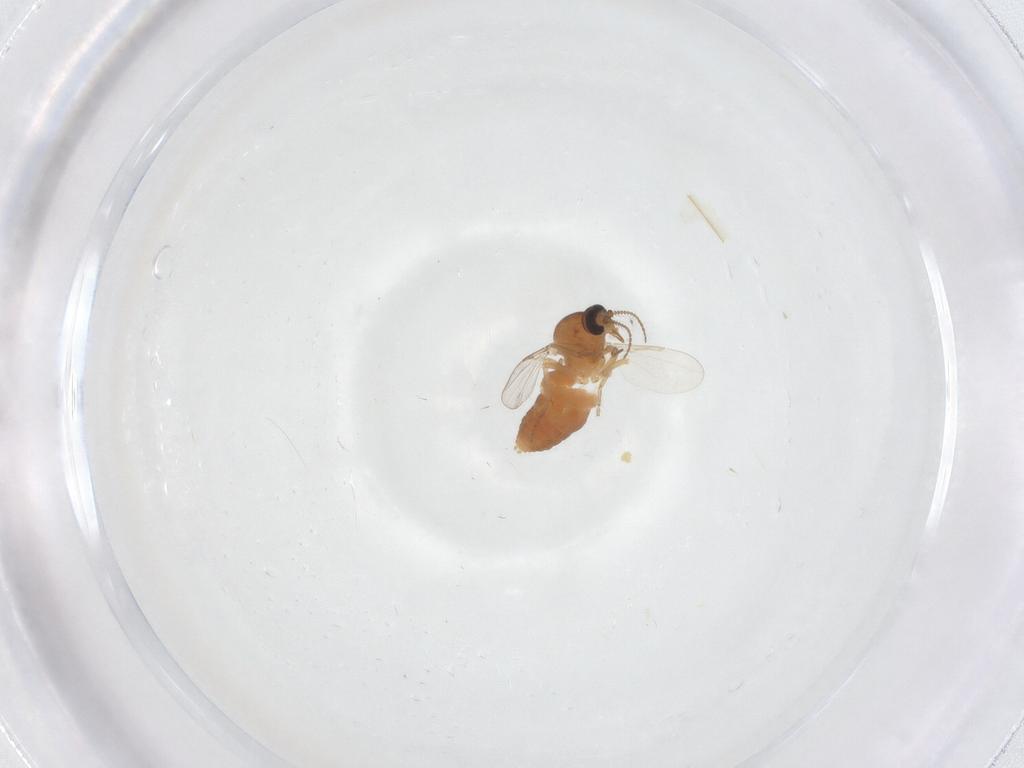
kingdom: Animalia
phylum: Arthropoda
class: Insecta
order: Diptera
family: Ceratopogonidae
